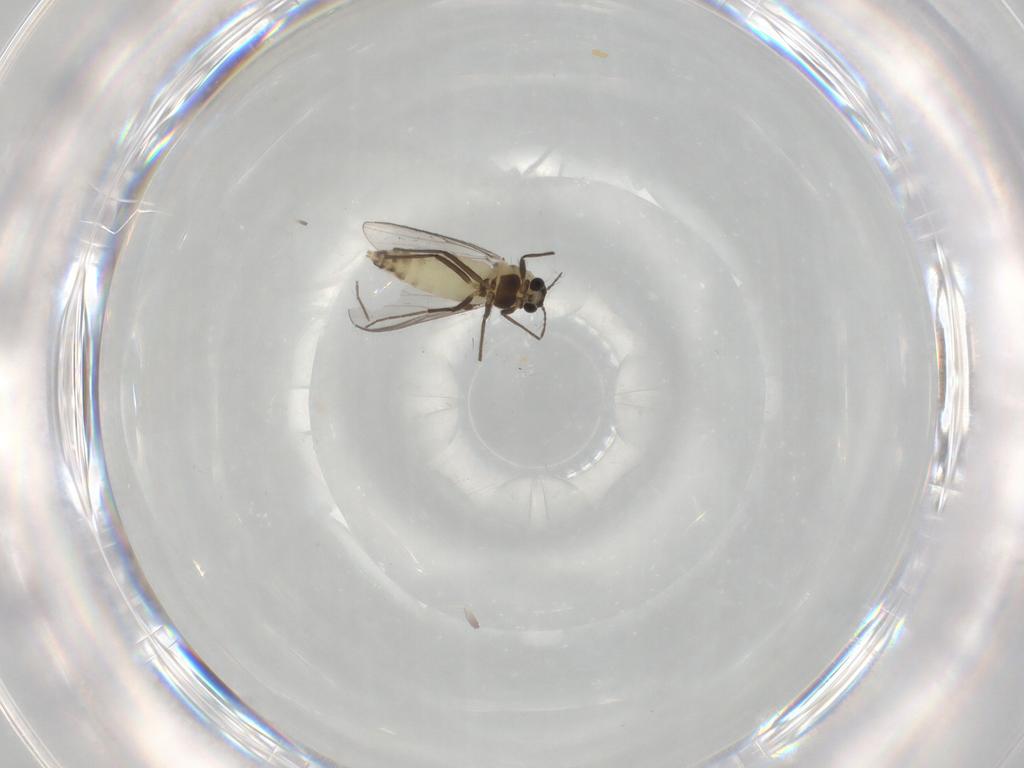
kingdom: Animalia
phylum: Arthropoda
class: Insecta
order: Diptera
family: Chironomidae
